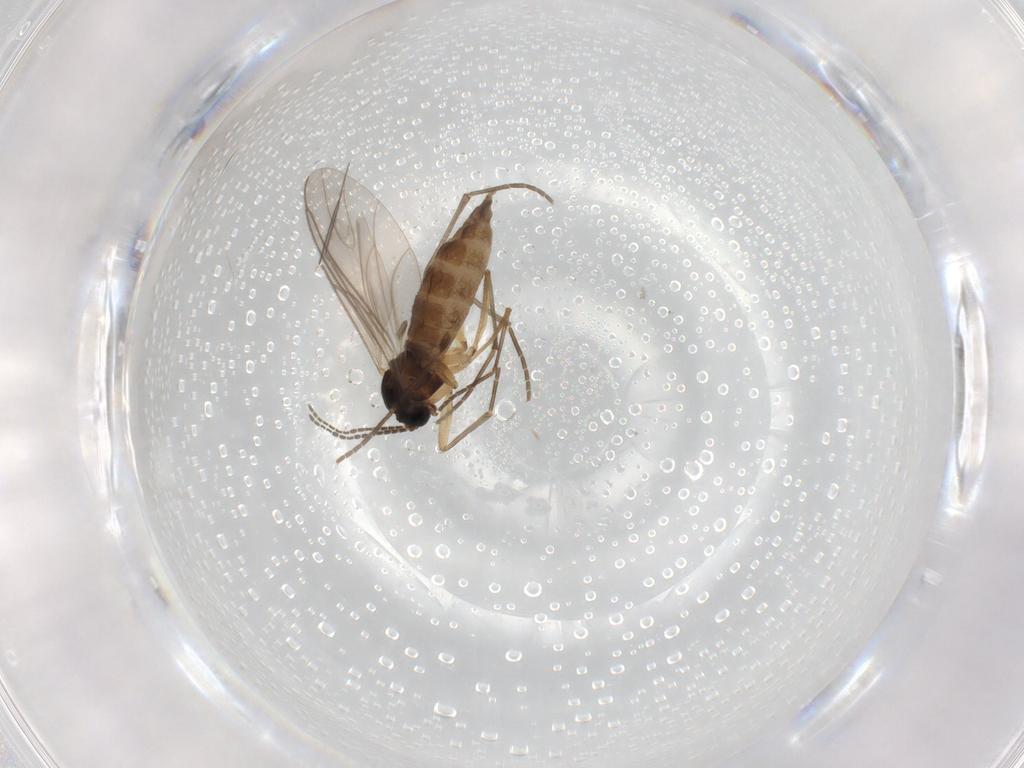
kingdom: Animalia
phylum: Arthropoda
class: Insecta
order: Diptera
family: Sciaridae
